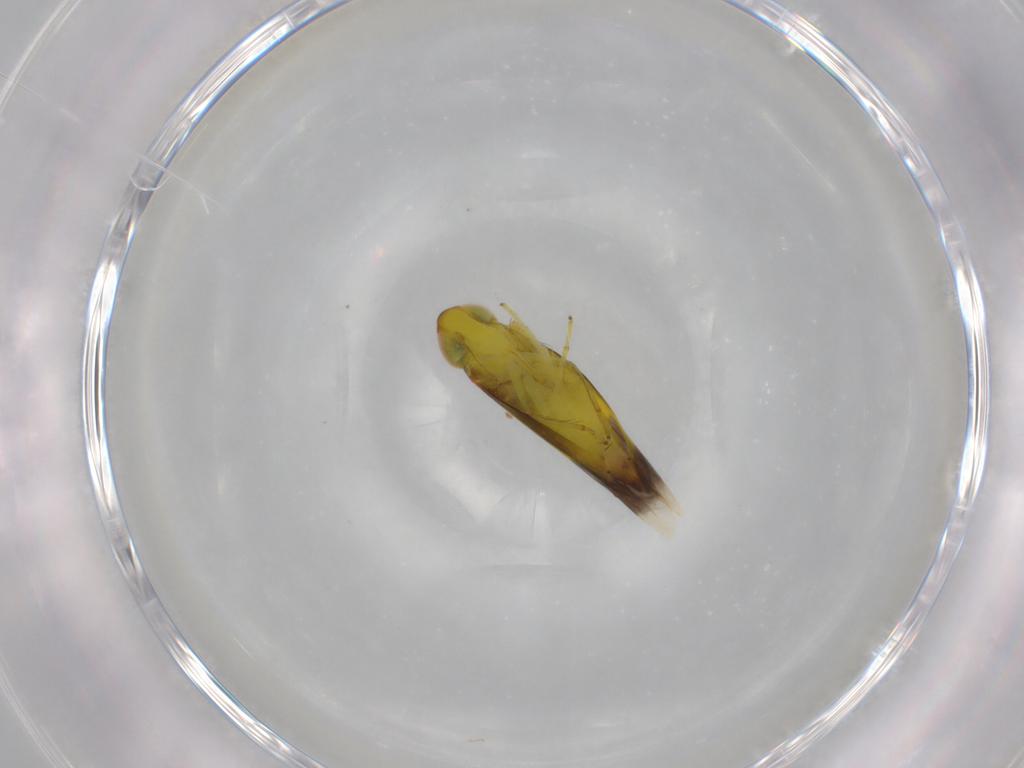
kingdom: Animalia
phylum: Arthropoda
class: Insecta
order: Hemiptera
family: Cicadellidae
